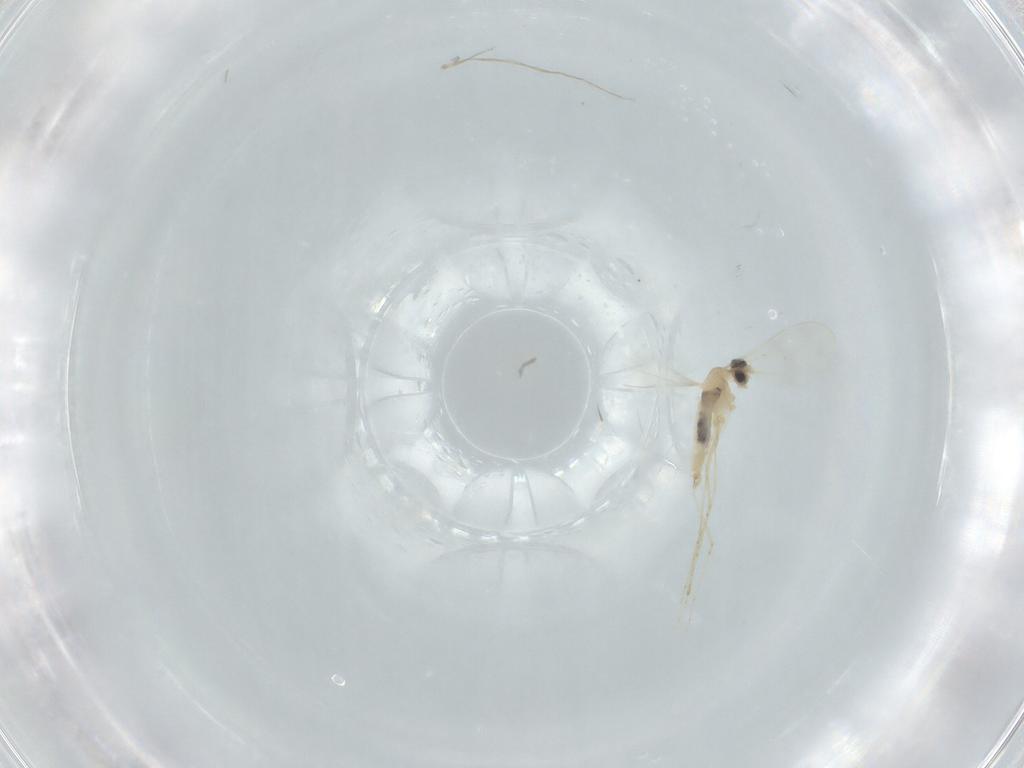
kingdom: Animalia
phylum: Arthropoda
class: Insecta
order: Diptera
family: Cecidomyiidae
